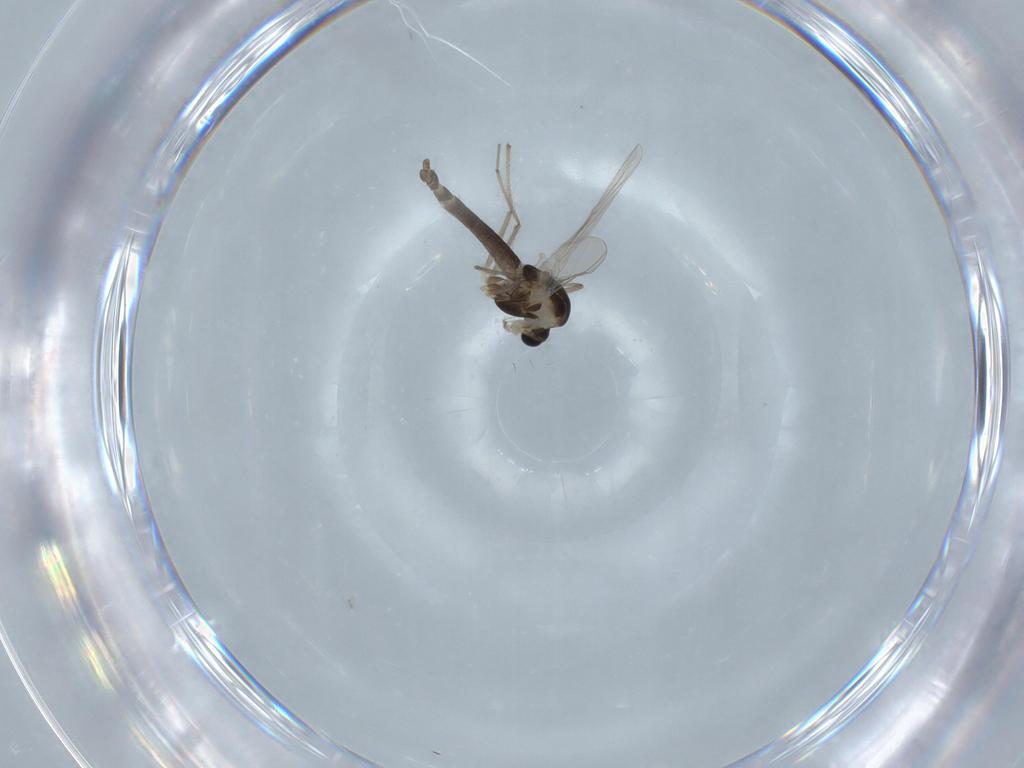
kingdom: Animalia
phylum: Arthropoda
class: Insecta
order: Diptera
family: Chironomidae
